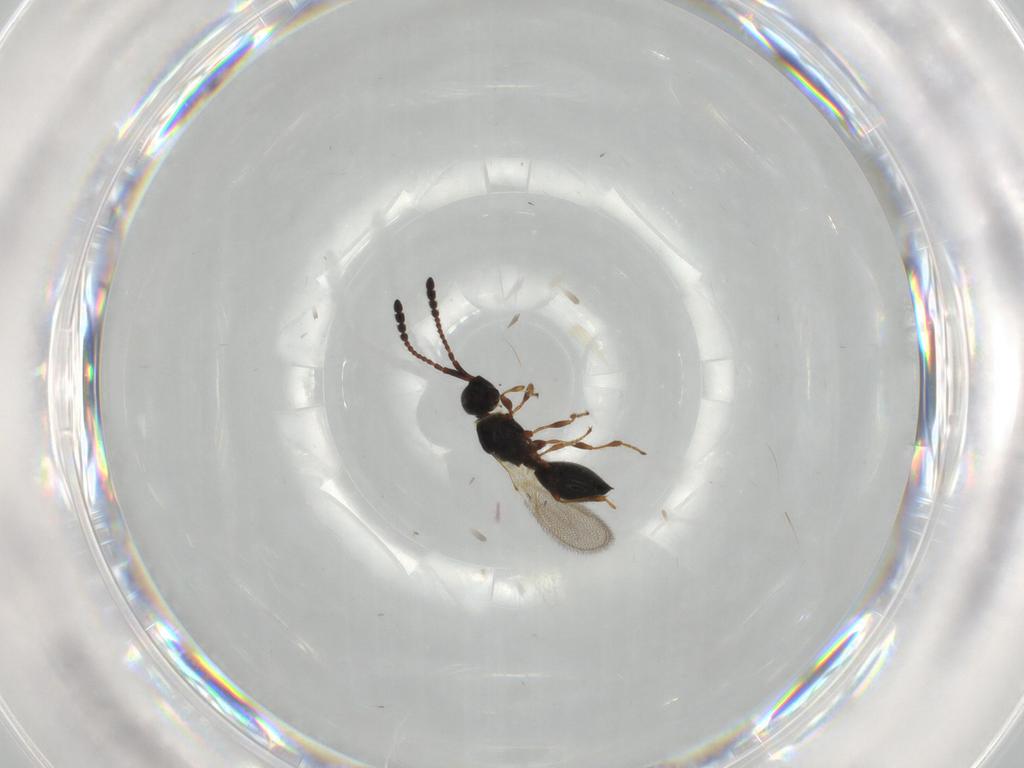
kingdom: Animalia
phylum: Arthropoda
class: Insecta
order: Hymenoptera
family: Diapriidae
